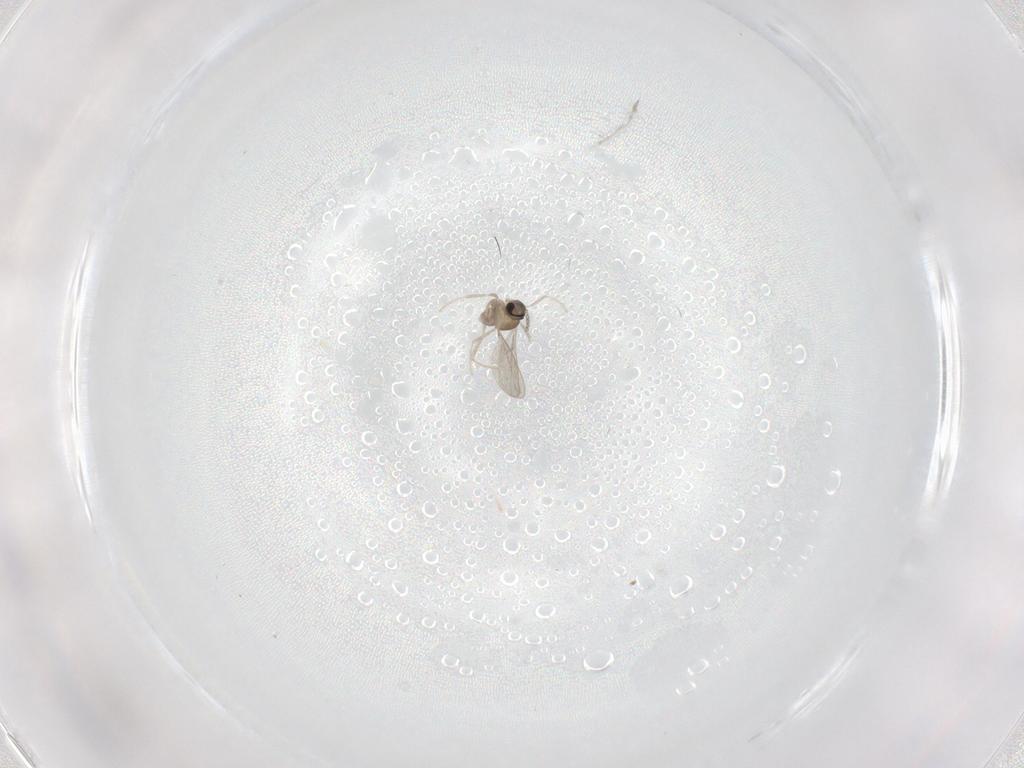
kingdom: Animalia
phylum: Arthropoda
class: Insecta
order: Diptera
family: Cecidomyiidae
